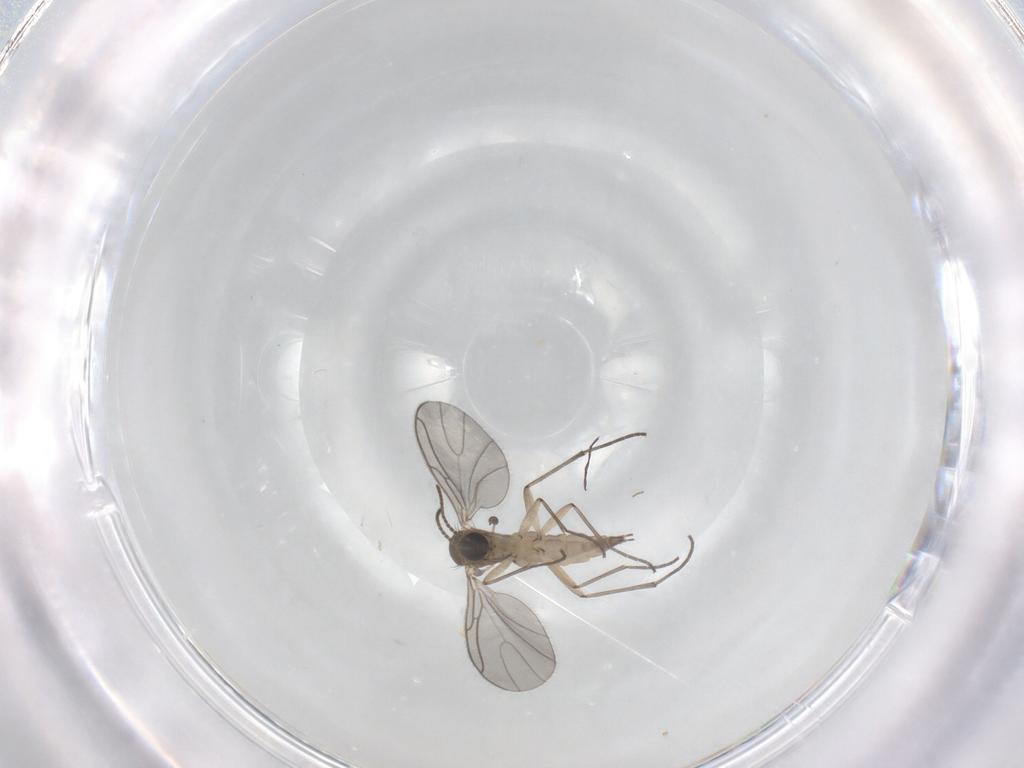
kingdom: Animalia
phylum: Arthropoda
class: Insecta
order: Diptera
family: Sciaridae
